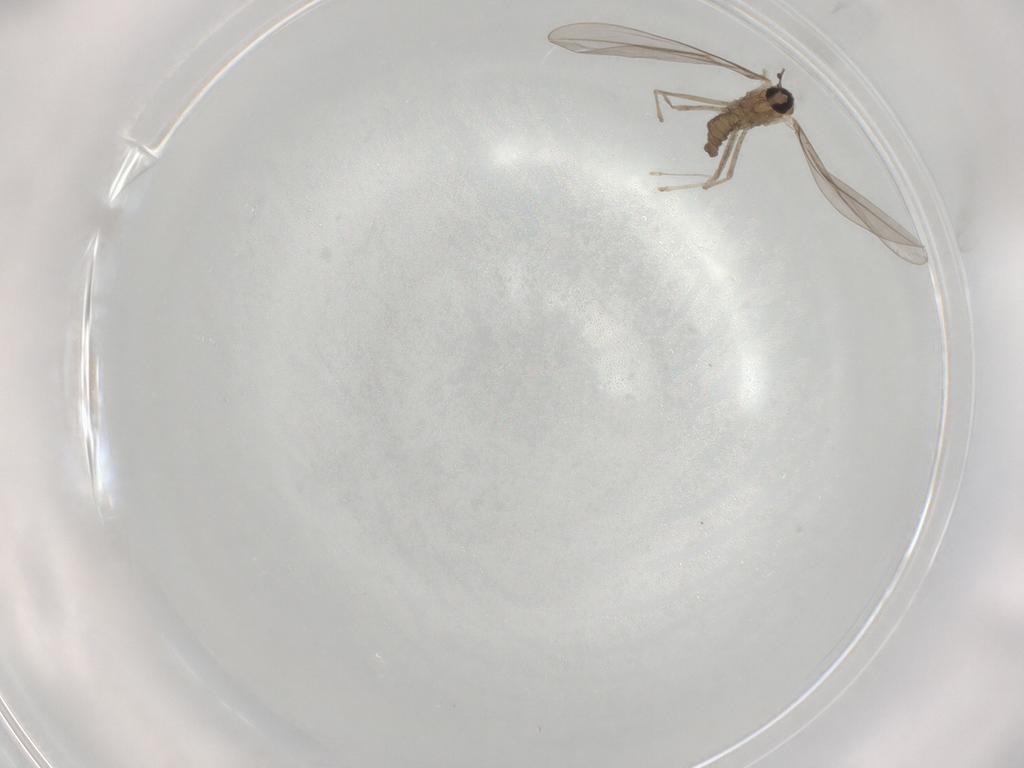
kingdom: Animalia
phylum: Arthropoda
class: Insecta
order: Diptera
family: Cecidomyiidae
